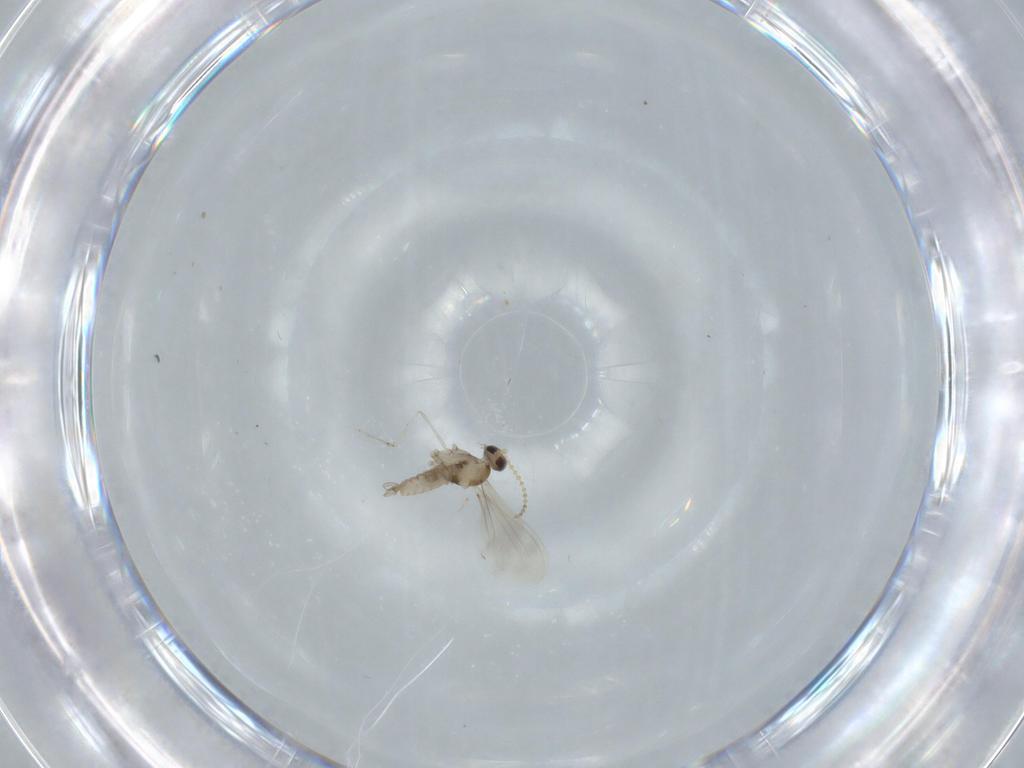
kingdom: Animalia
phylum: Arthropoda
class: Insecta
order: Diptera
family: Cecidomyiidae
